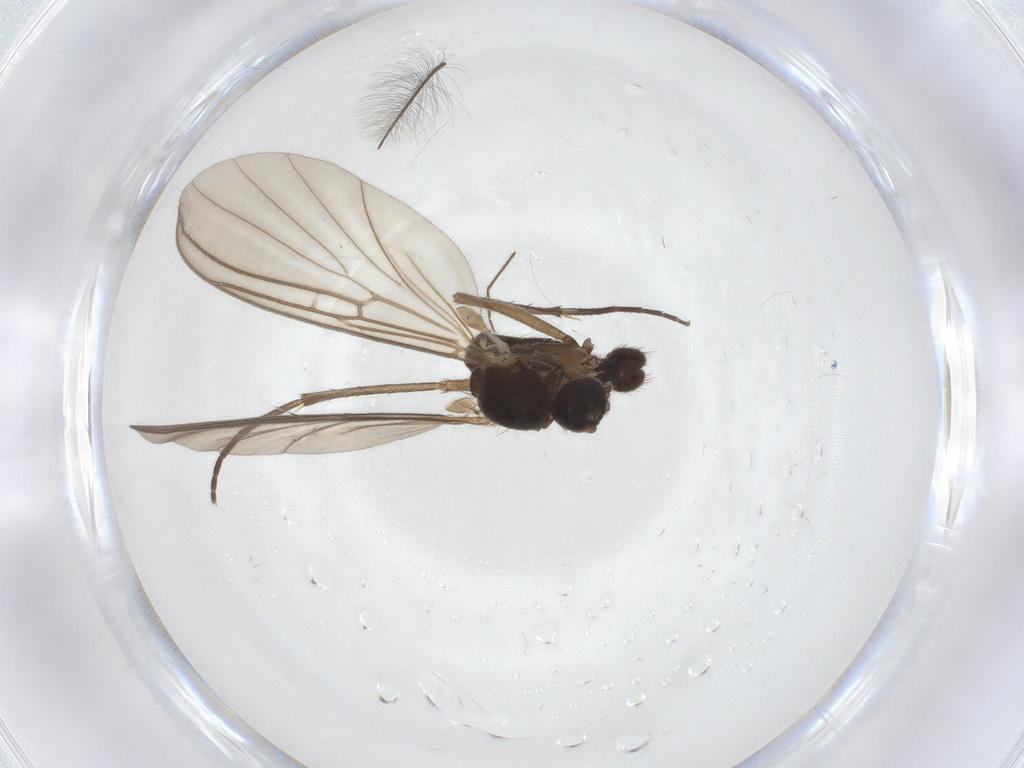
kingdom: Animalia
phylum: Arthropoda
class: Insecta
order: Diptera
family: Mycetophilidae
